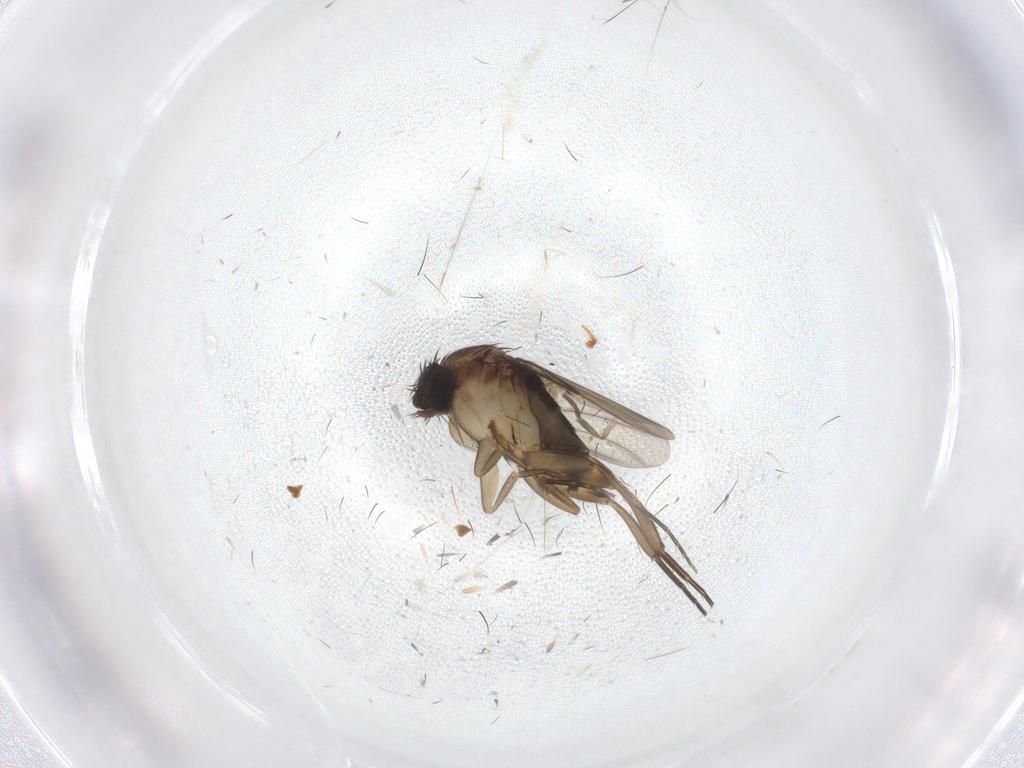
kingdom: Animalia
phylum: Arthropoda
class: Insecta
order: Diptera
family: Phoridae
